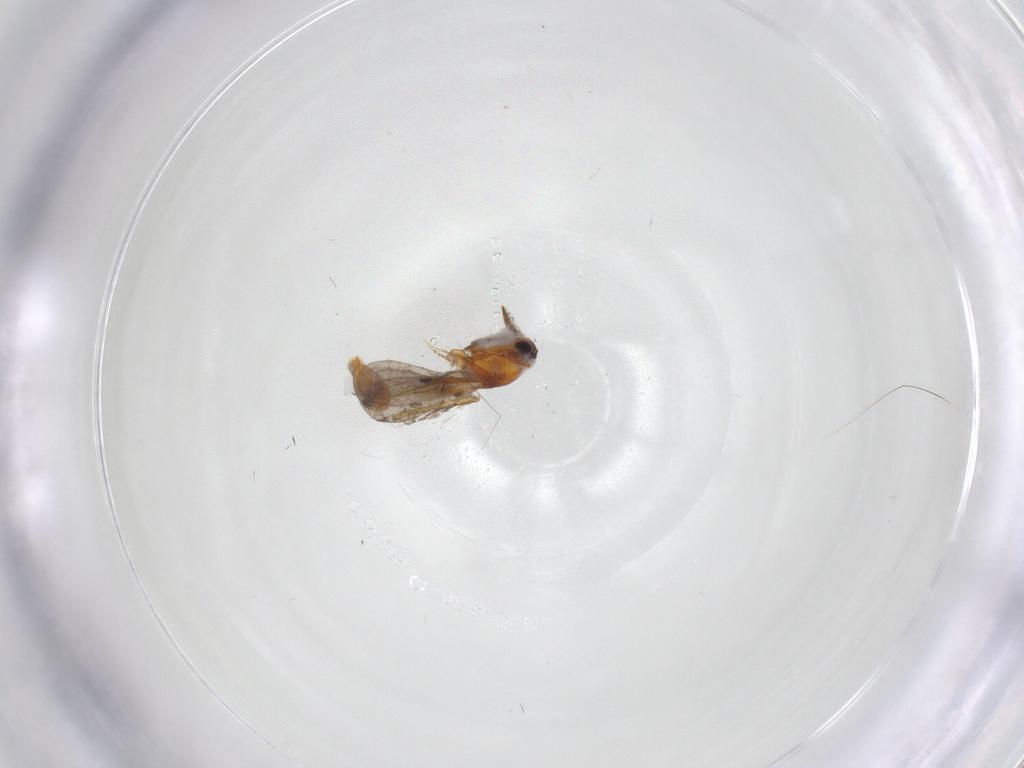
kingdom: Animalia
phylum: Arthropoda
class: Insecta
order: Hymenoptera
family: Platygastridae
